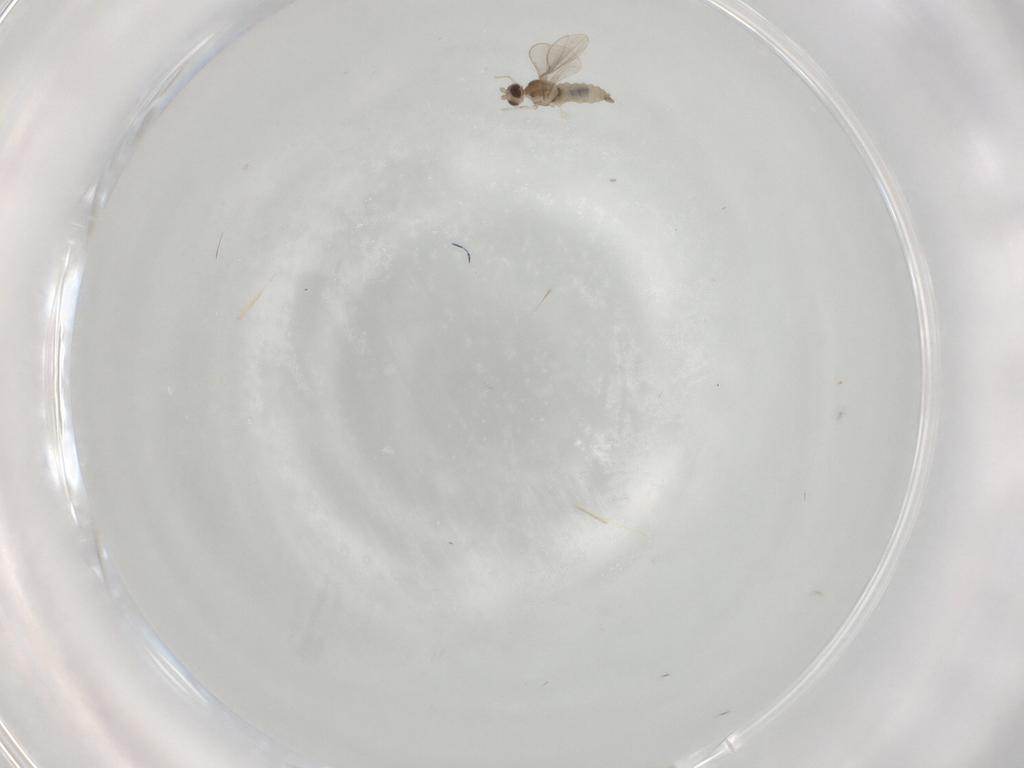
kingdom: Animalia
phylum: Arthropoda
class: Insecta
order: Diptera
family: Cecidomyiidae
